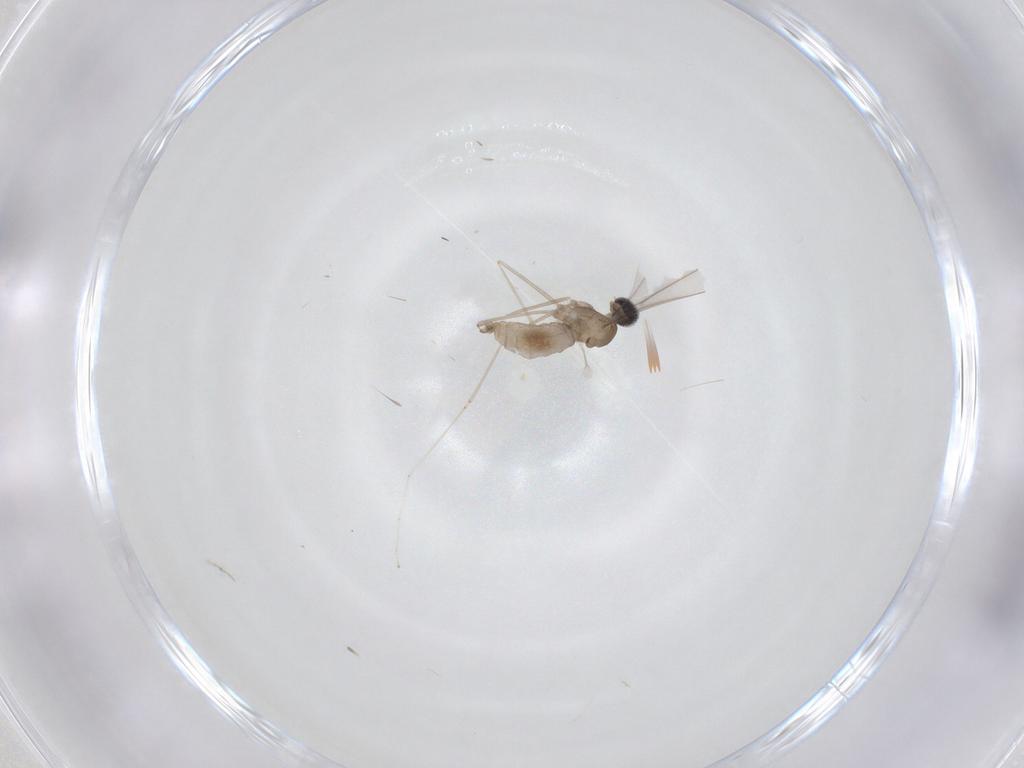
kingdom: Animalia
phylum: Arthropoda
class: Insecta
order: Diptera
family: Cecidomyiidae
